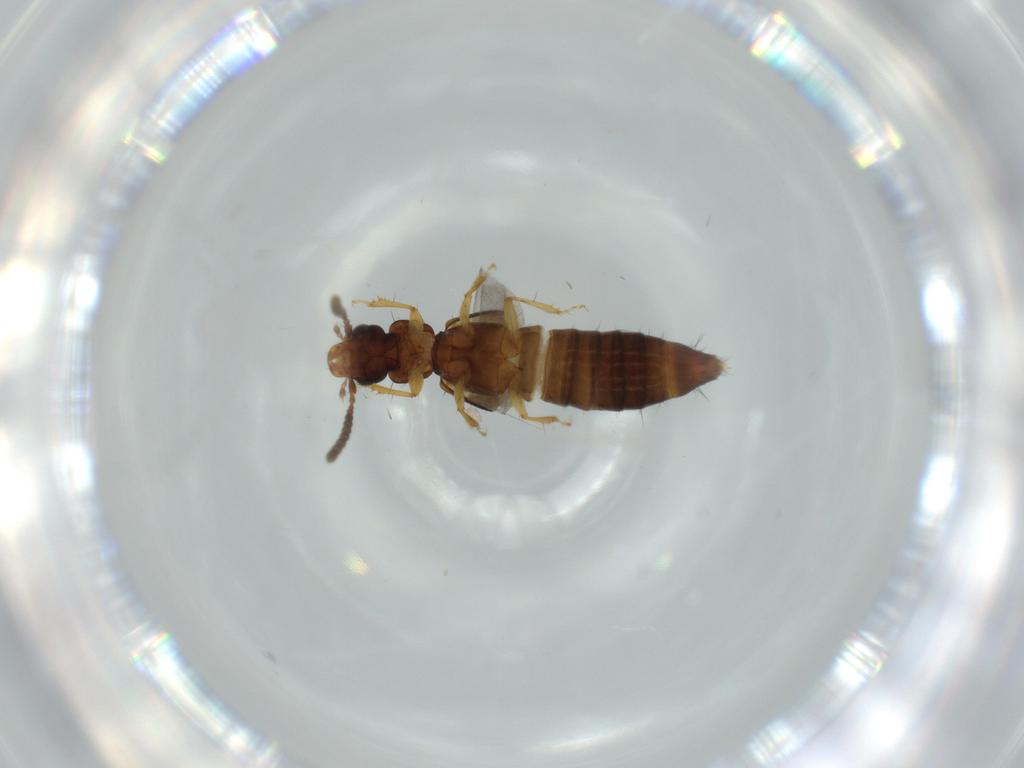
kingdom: Animalia
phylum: Arthropoda
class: Insecta
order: Coleoptera
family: Staphylinidae
